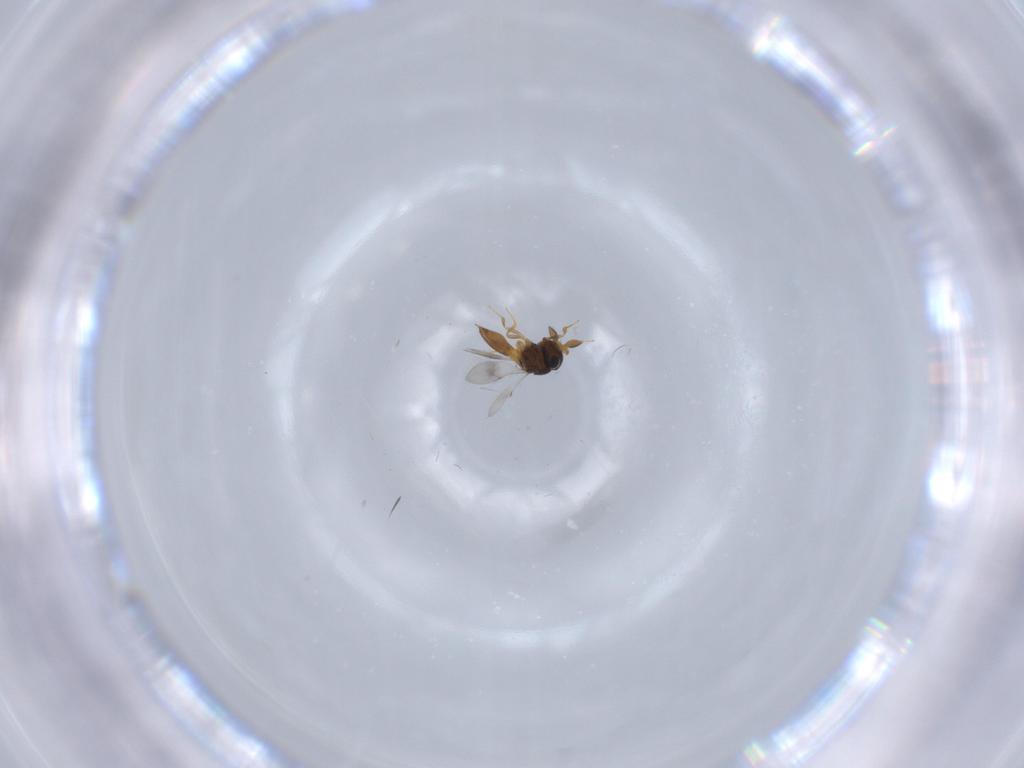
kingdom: Animalia
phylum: Arthropoda
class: Insecta
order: Hymenoptera
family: Scelionidae
